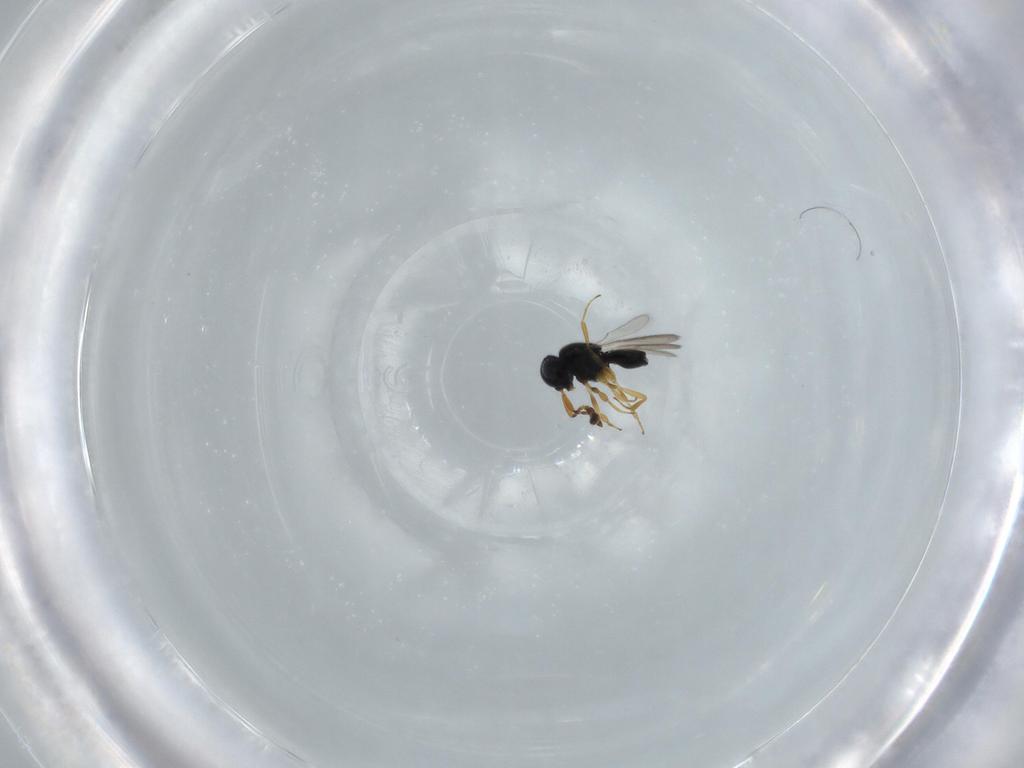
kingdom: Animalia
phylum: Arthropoda
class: Insecta
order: Hymenoptera
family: Scelionidae
